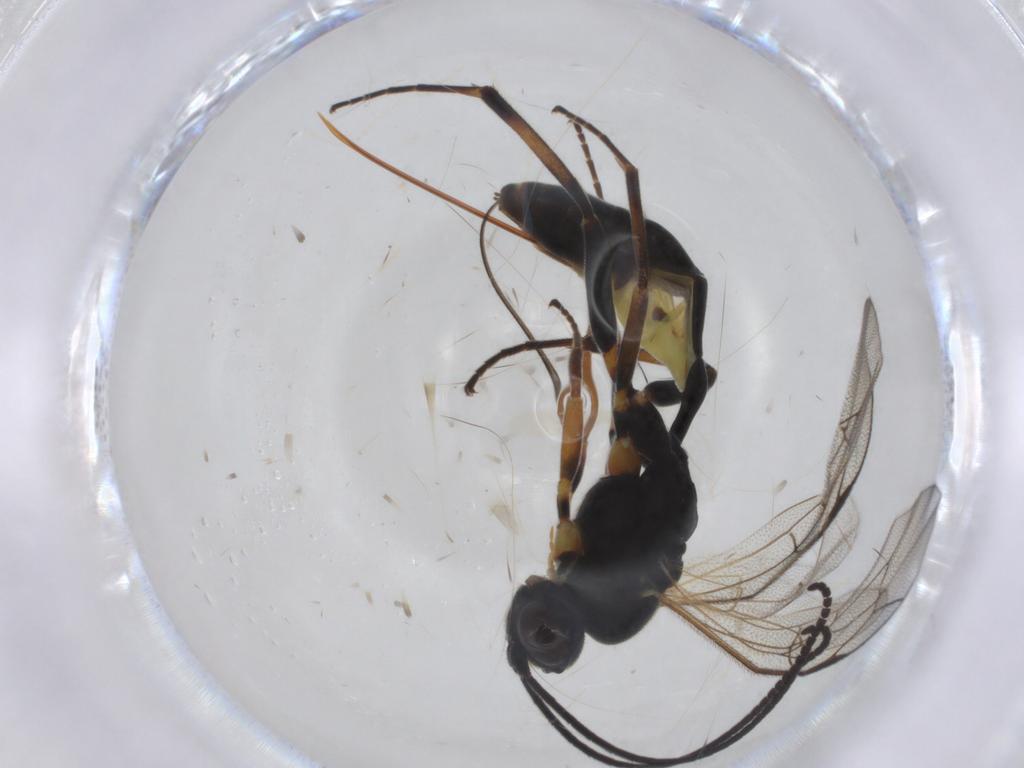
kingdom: Animalia
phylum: Arthropoda
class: Insecta
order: Hymenoptera
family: Ichneumonidae
